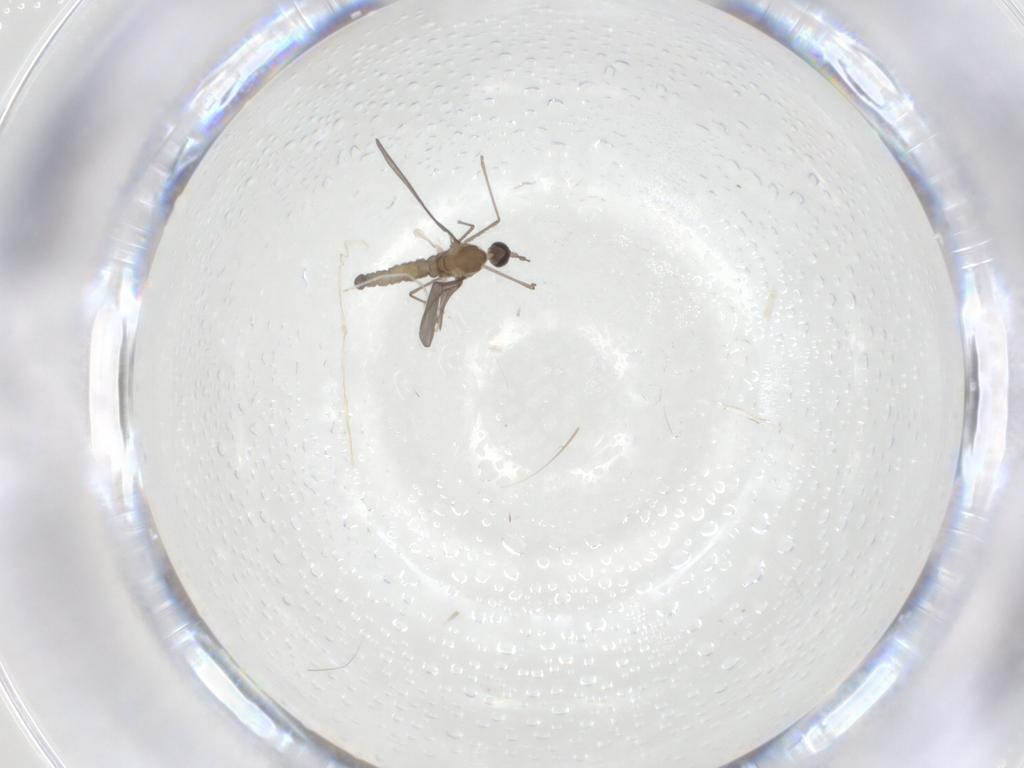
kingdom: Animalia
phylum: Arthropoda
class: Insecta
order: Diptera
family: Cecidomyiidae
